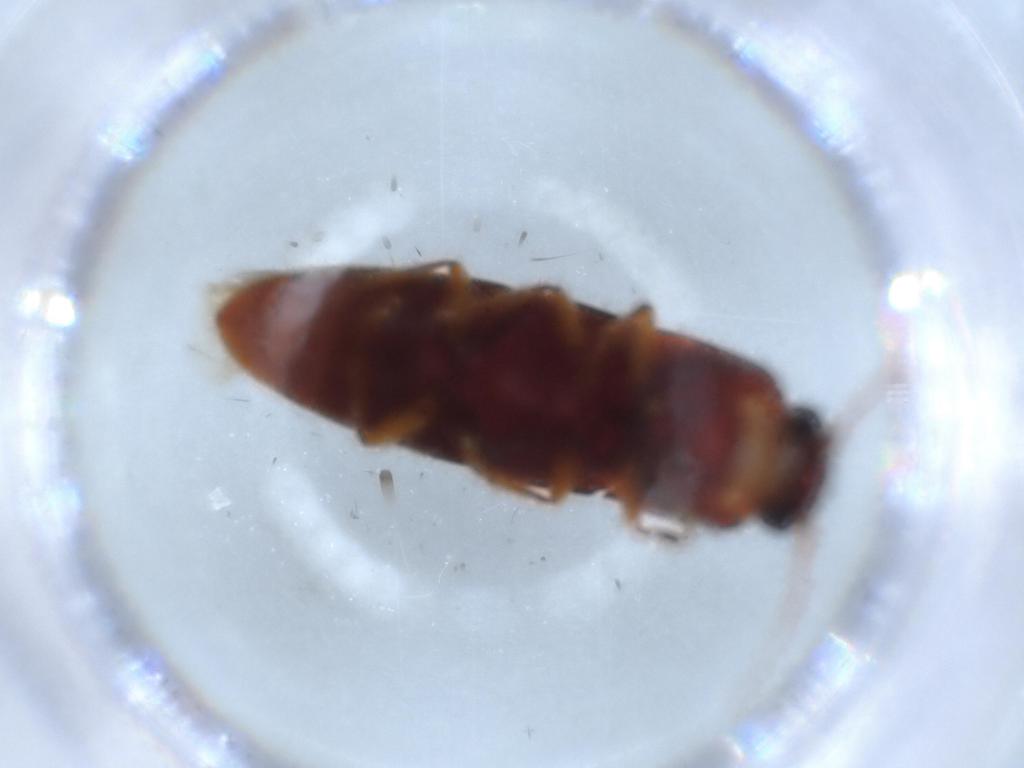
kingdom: Animalia
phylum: Arthropoda
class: Insecta
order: Coleoptera
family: Elateridae
